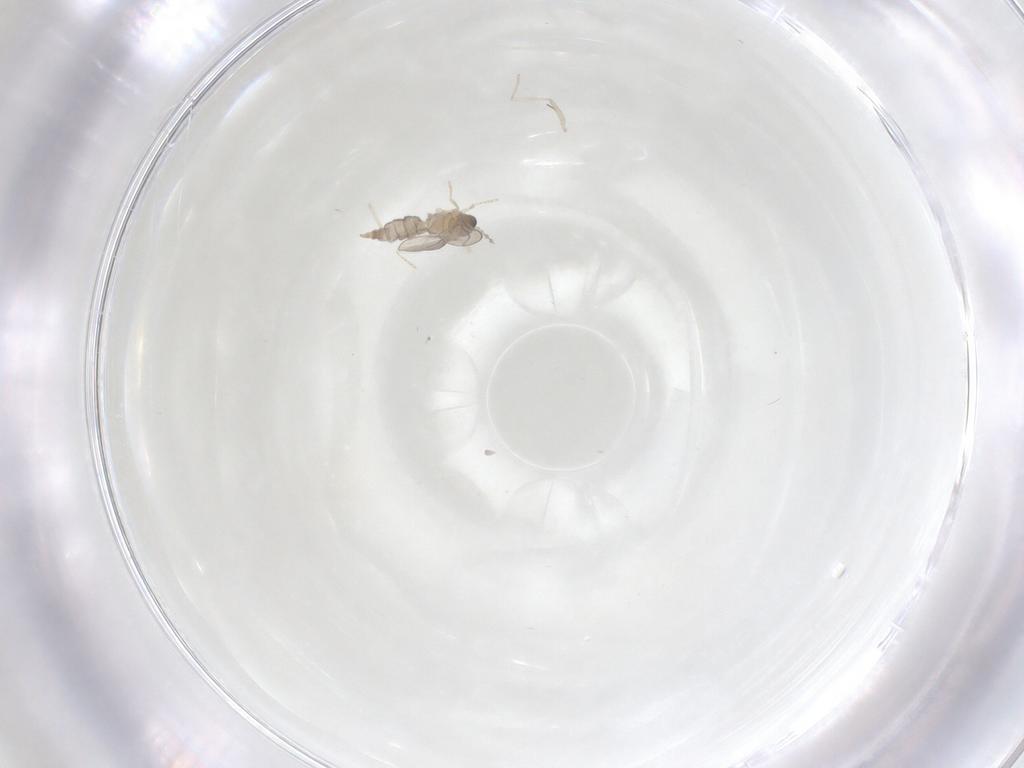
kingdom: Animalia
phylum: Arthropoda
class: Insecta
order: Diptera
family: Cecidomyiidae
